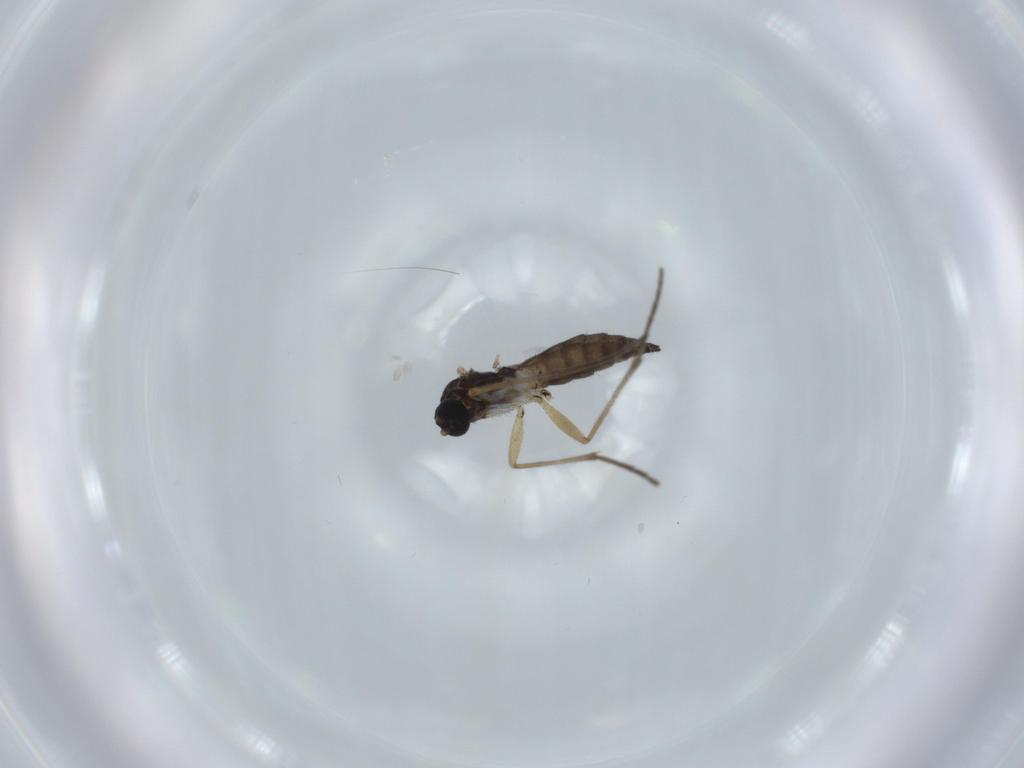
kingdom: Animalia
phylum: Arthropoda
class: Insecta
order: Diptera
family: Sciaridae
